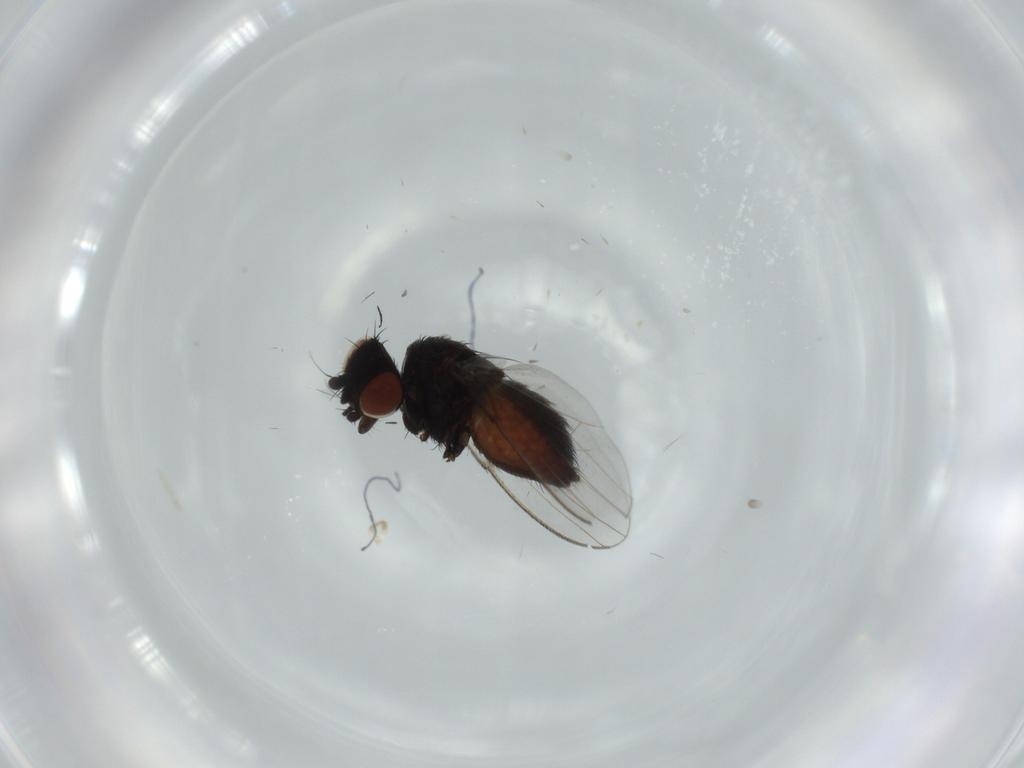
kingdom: Animalia
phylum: Arthropoda
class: Insecta
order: Diptera
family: Milichiidae
